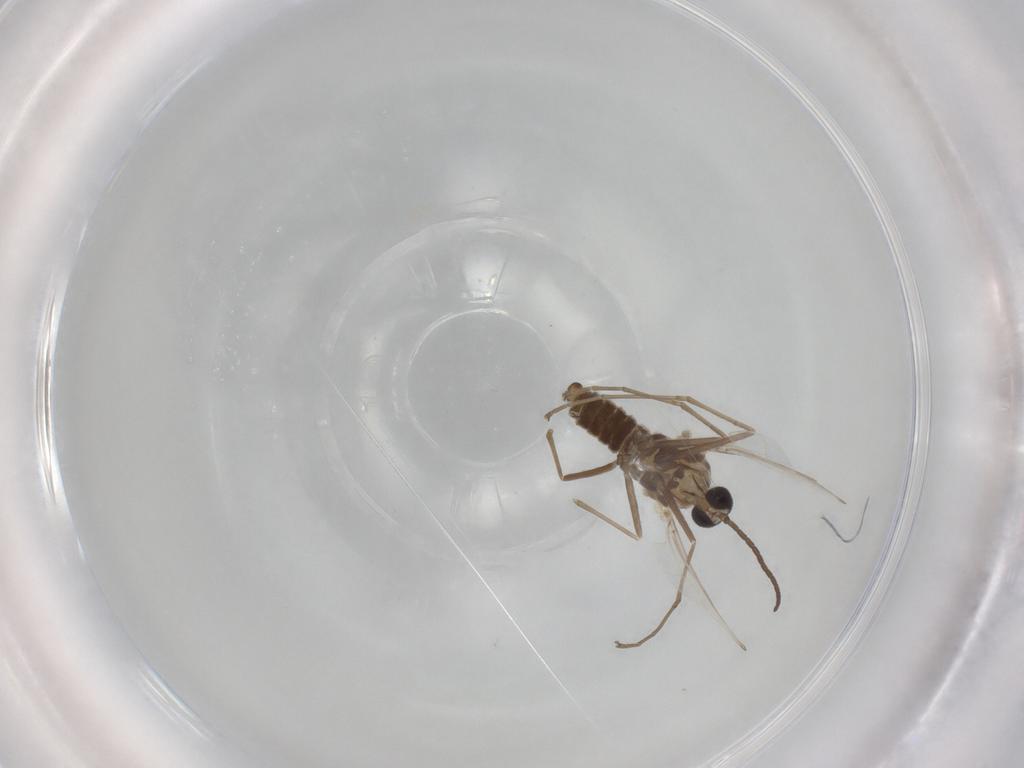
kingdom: Animalia
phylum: Arthropoda
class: Insecta
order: Diptera
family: Cecidomyiidae
